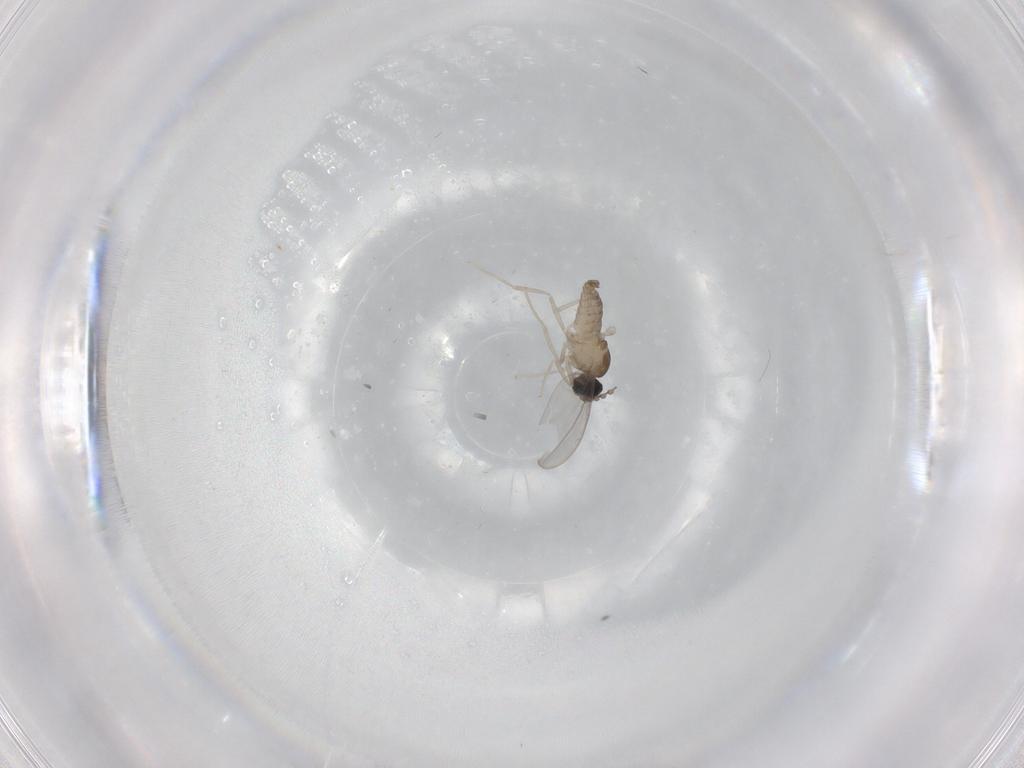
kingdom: Animalia
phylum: Arthropoda
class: Insecta
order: Diptera
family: Milichiidae
